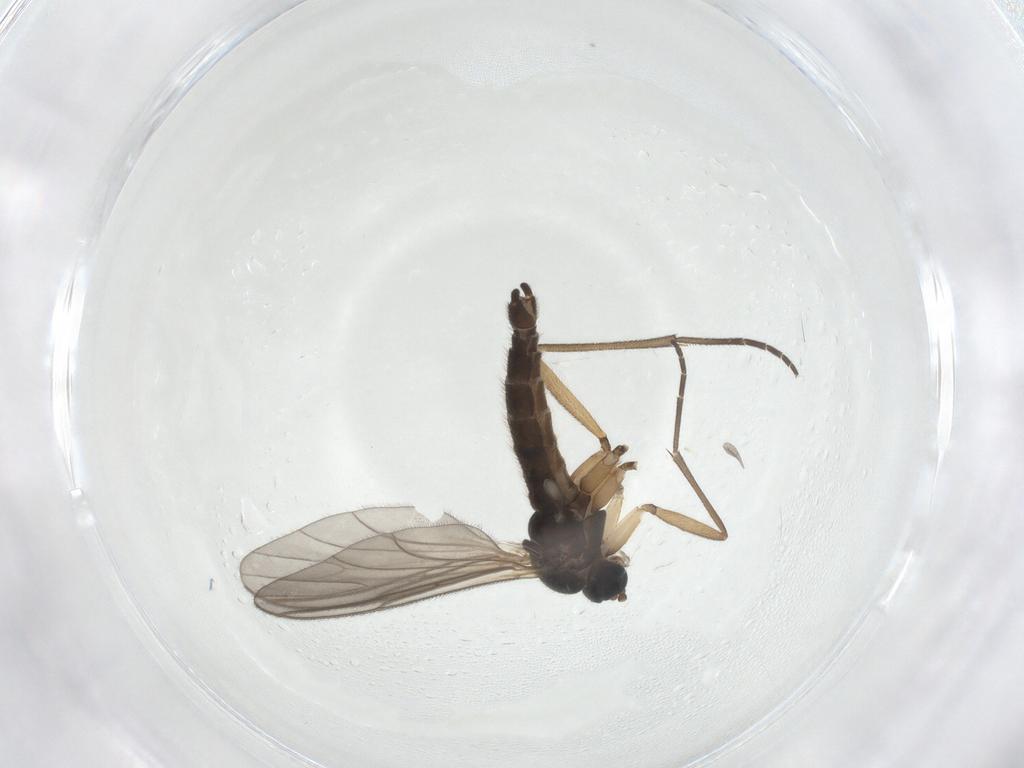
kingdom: Animalia
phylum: Arthropoda
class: Insecta
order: Diptera
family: Sciaridae
